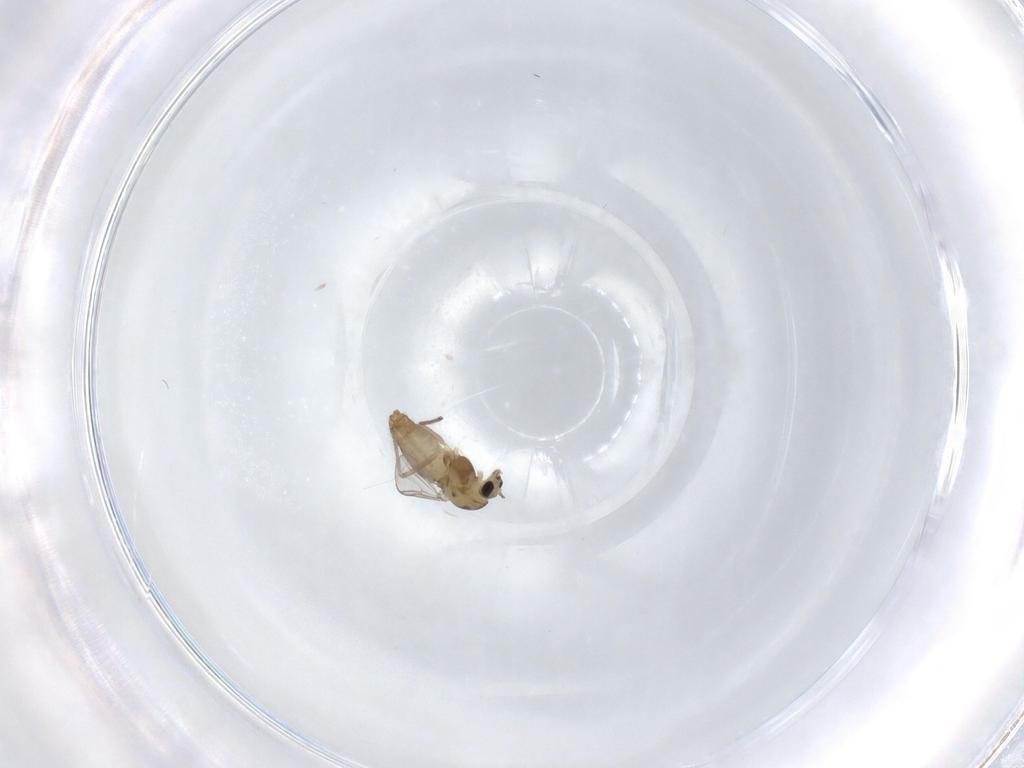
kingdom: Animalia
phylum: Arthropoda
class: Insecta
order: Diptera
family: Chironomidae
